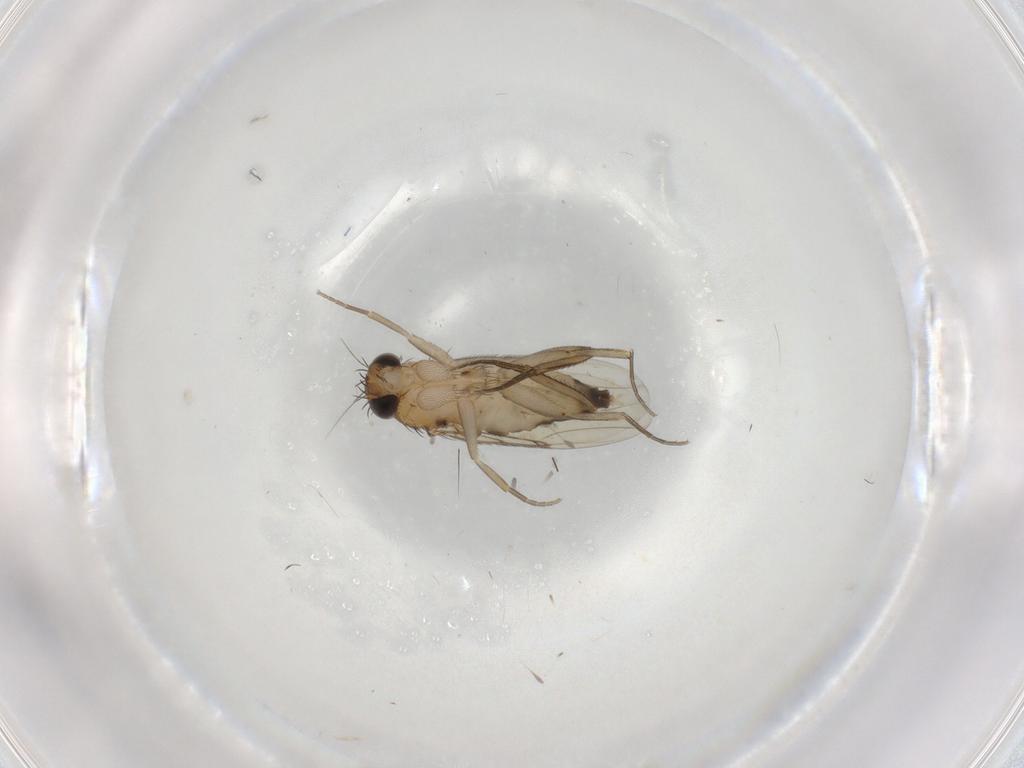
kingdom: Animalia
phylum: Arthropoda
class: Insecta
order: Diptera
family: Phoridae
